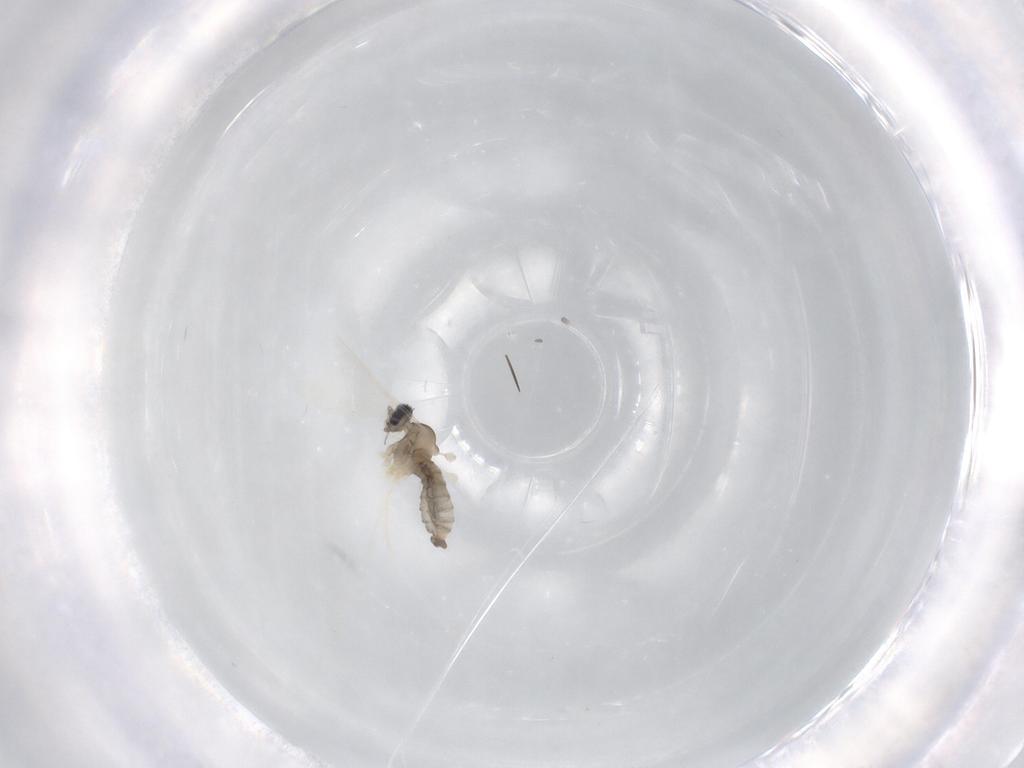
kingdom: Animalia
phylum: Arthropoda
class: Insecta
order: Diptera
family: Cecidomyiidae
